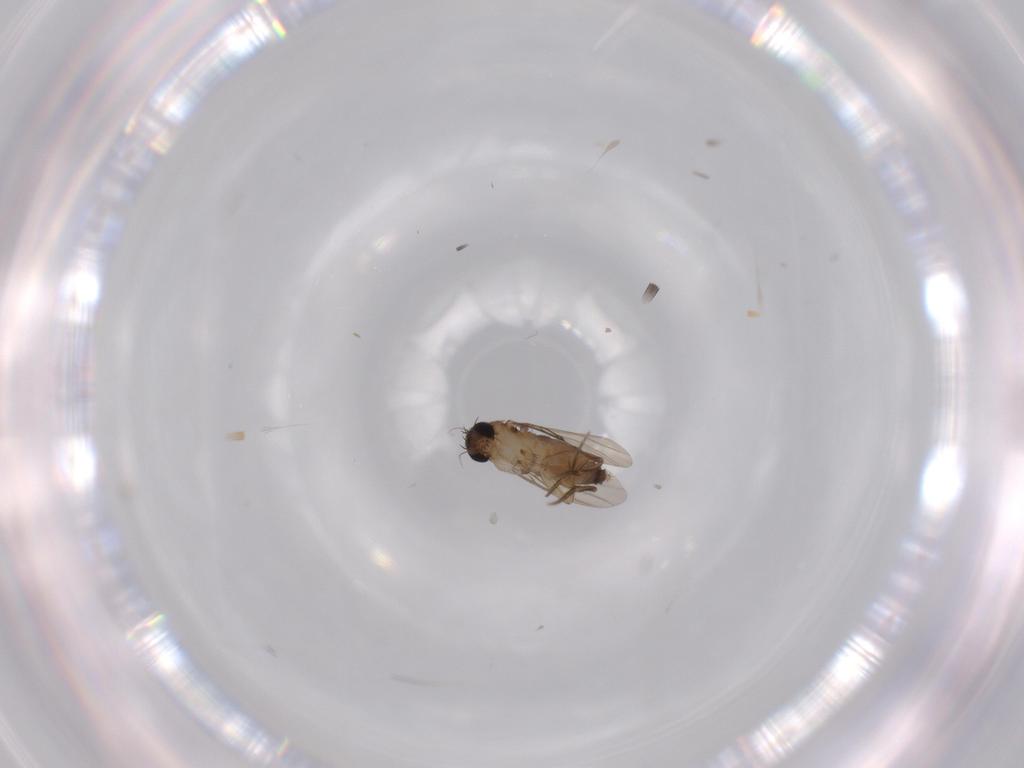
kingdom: Animalia
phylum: Arthropoda
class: Insecta
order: Diptera
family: Phoridae
